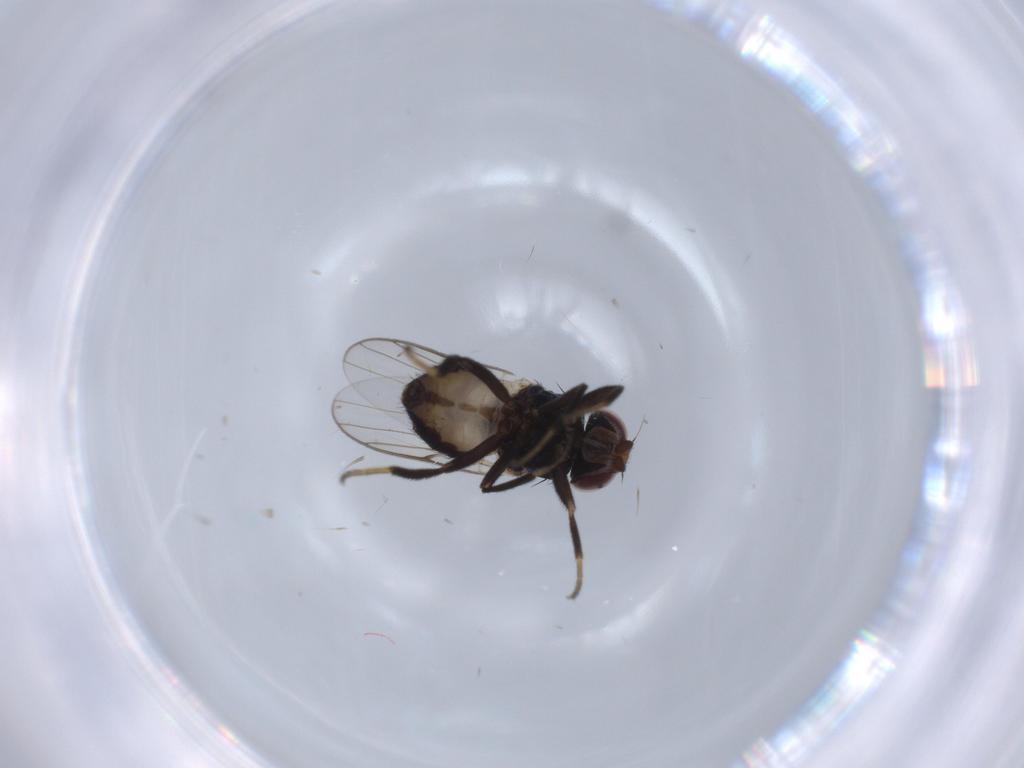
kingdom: Animalia
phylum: Arthropoda
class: Insecta
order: Diptera
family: Chloropidae
